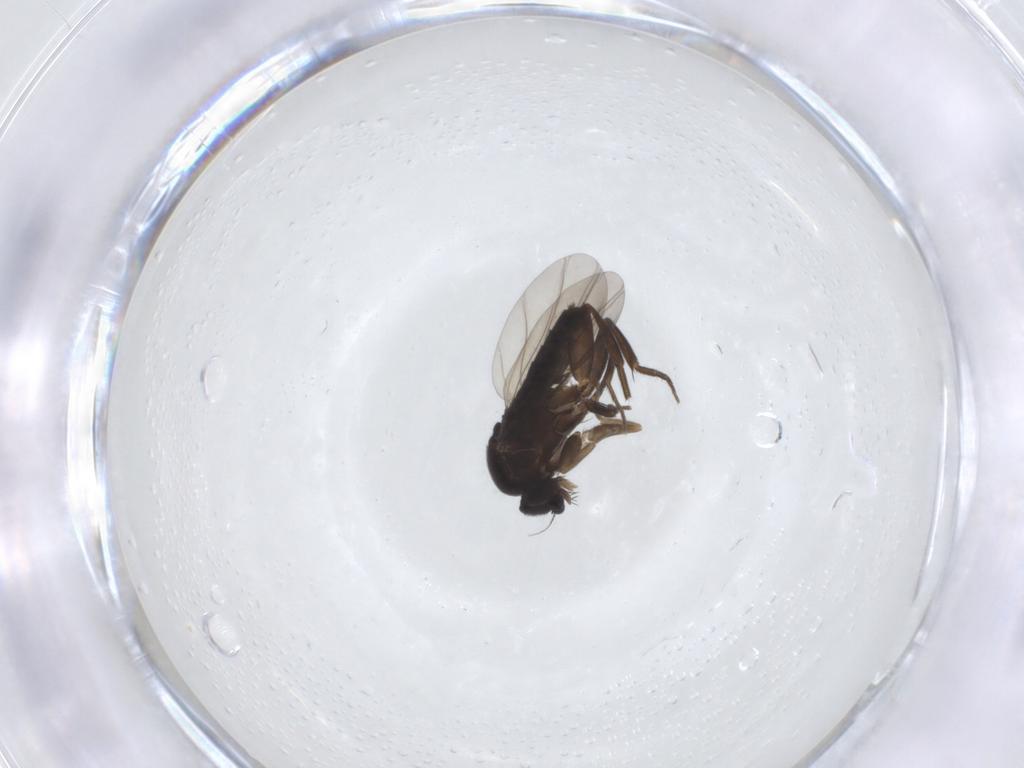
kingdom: Animalia
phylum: Arthropoda
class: Insecta
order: Diptera
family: Phoridae
